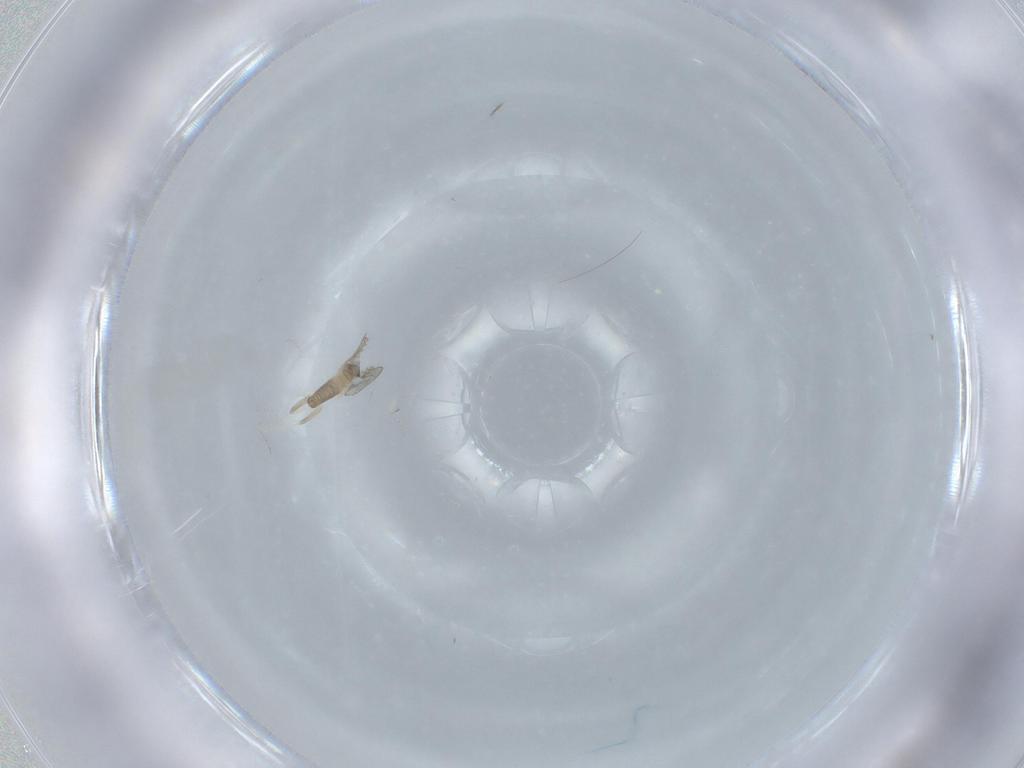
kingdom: Animalia
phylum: Arthropoda
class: Insecta
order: Diptera
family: Cecidomyiidae
